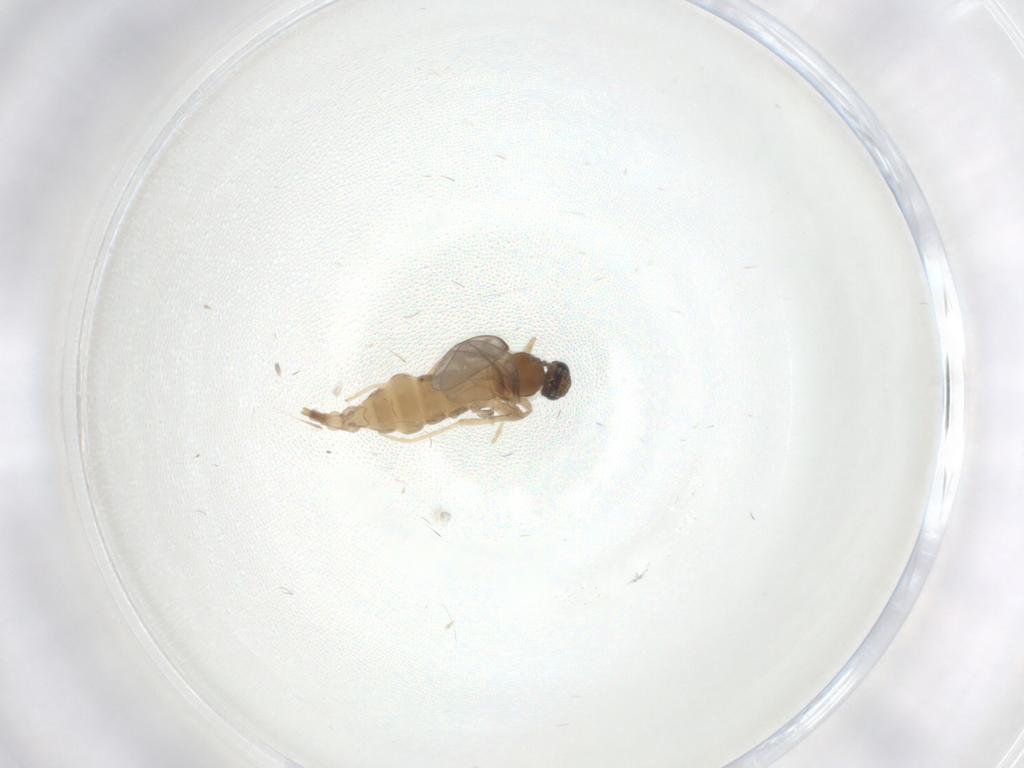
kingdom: Animalia
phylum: Arthropoda
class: Insecta
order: Diptera
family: Cecidomyiidae
